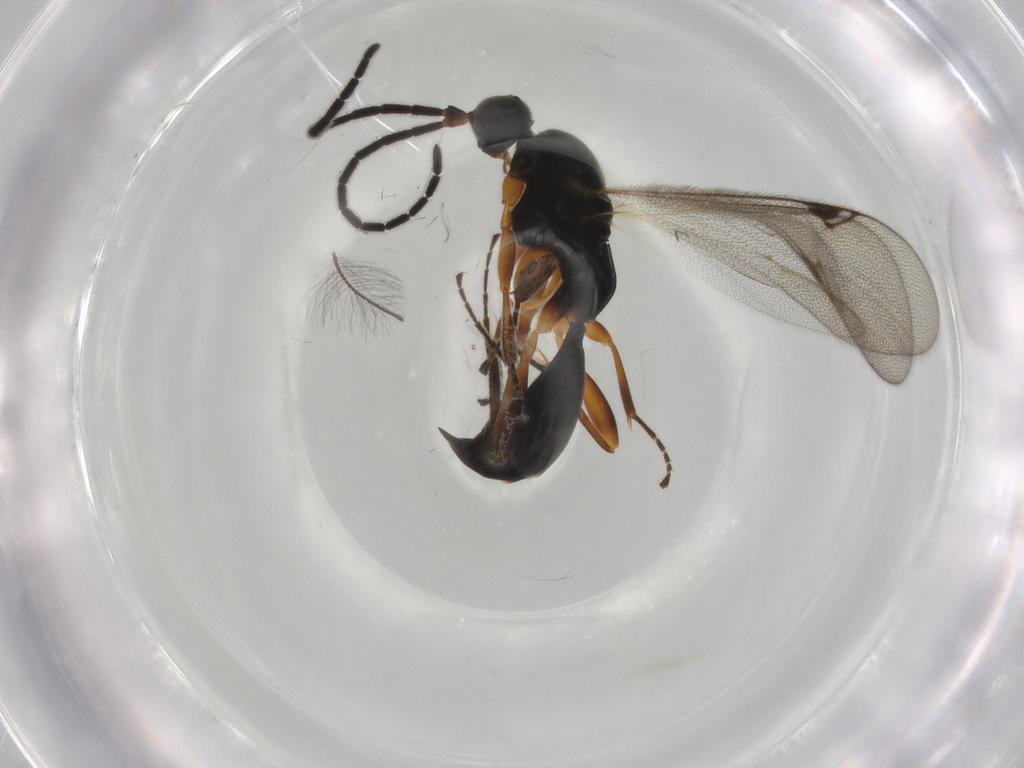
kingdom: Animalia
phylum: Arthropoda
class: Insecta
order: Hymenoptera
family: Proctotrupidae
